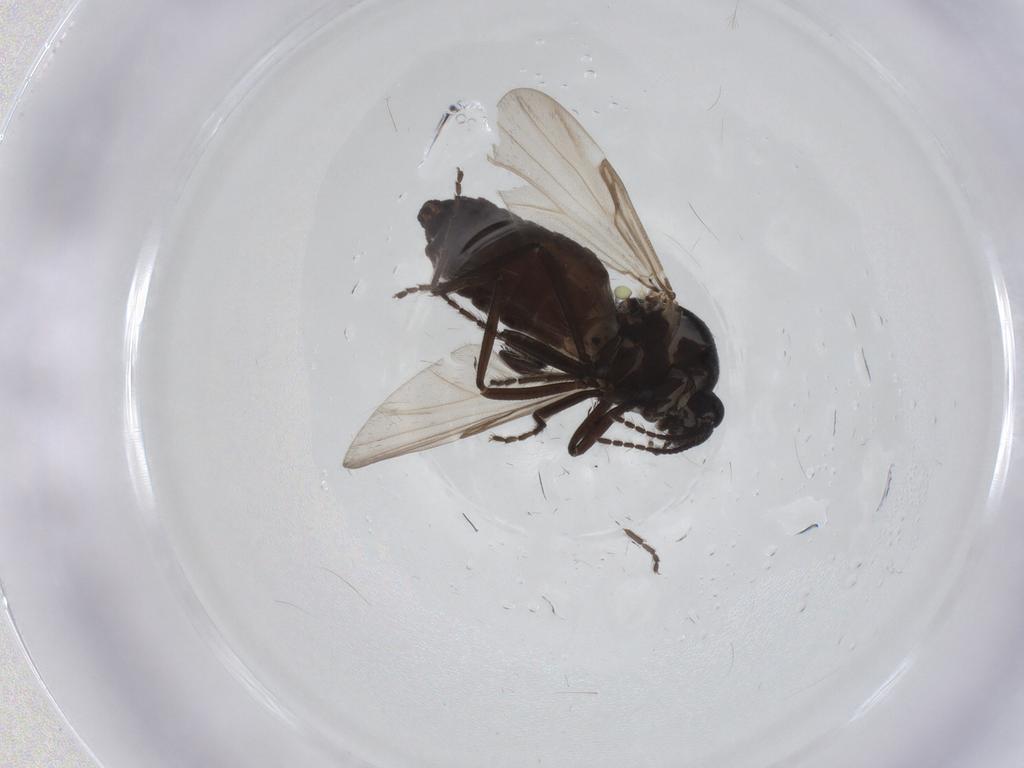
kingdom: Animalia
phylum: Arthropoda
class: Insecta
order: Diptera
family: Ceratopogonidae
